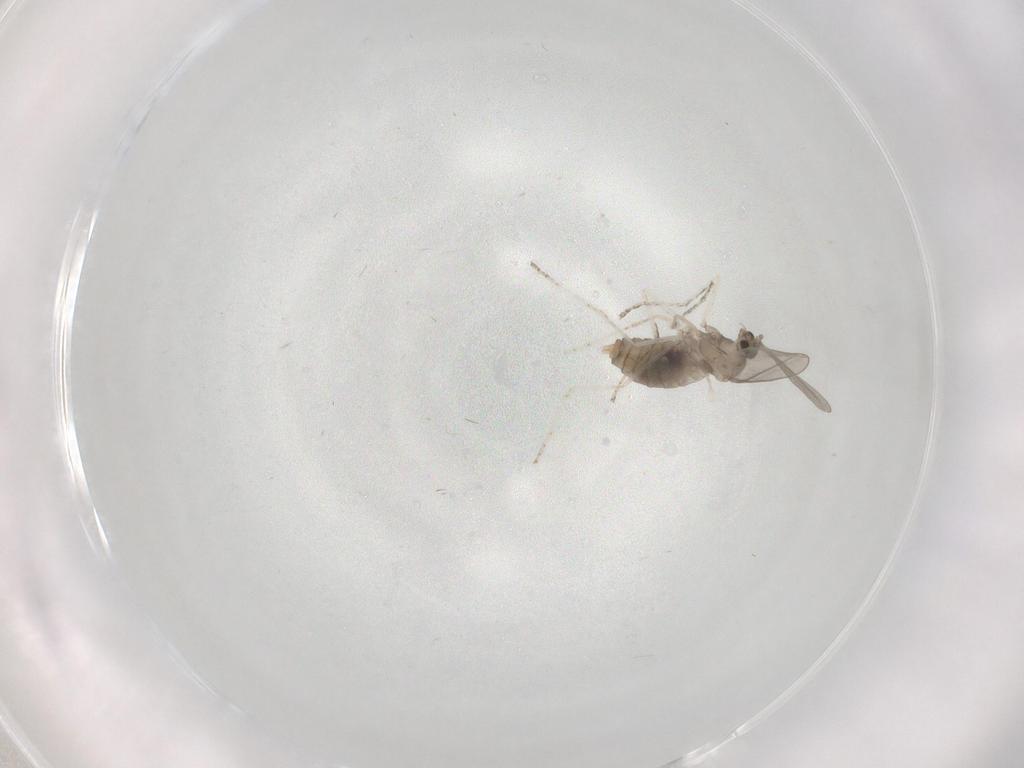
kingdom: Animalia
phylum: Arthropoda
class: Insecta
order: Diptera
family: Cecidomyiidae
